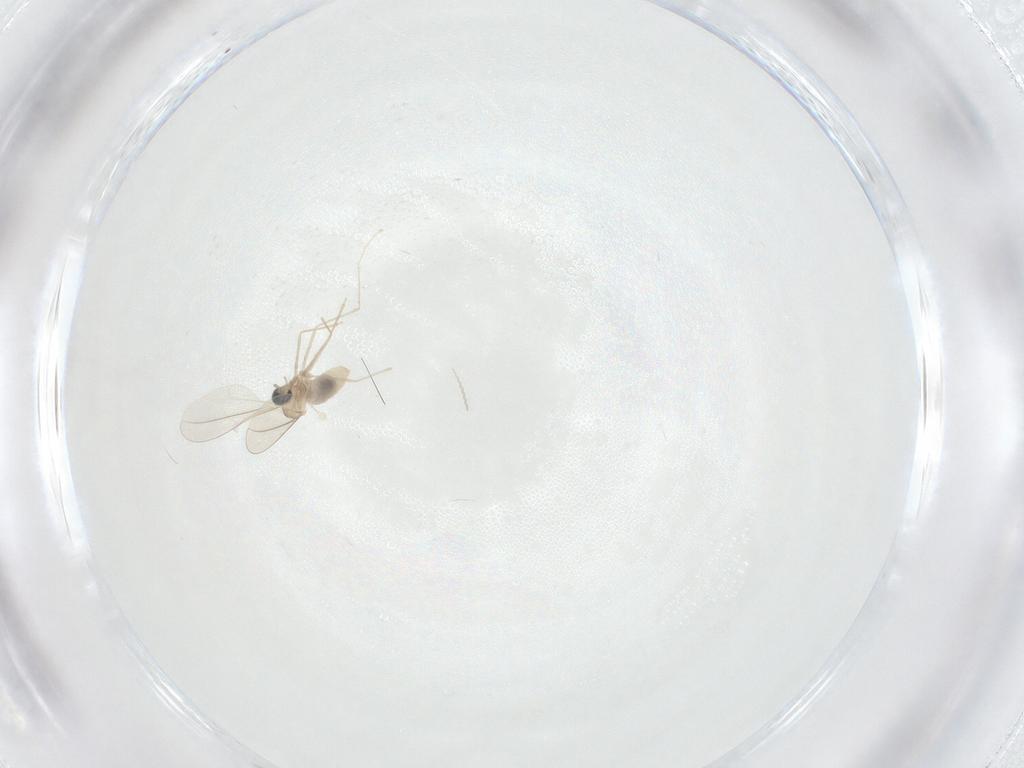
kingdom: Animalia
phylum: Arthropoda
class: Insecta
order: Diptera
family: Cecidomyiidae
